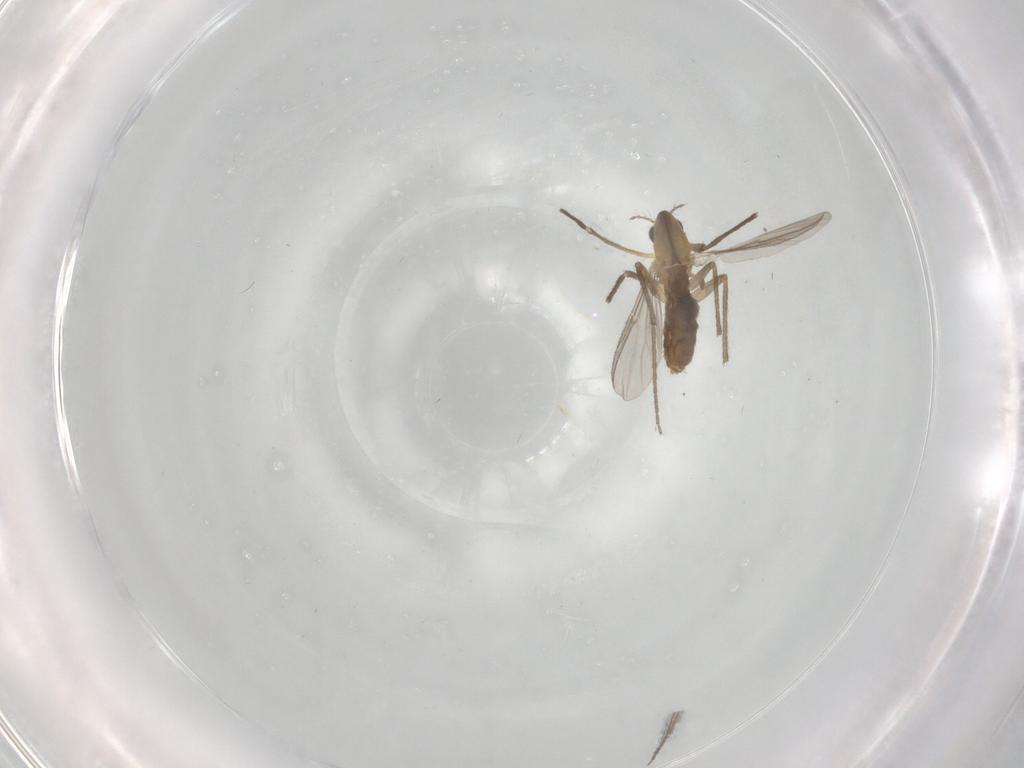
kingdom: Animalia
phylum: Arthropoda
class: Insecta
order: Diptera
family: Chironomidae
